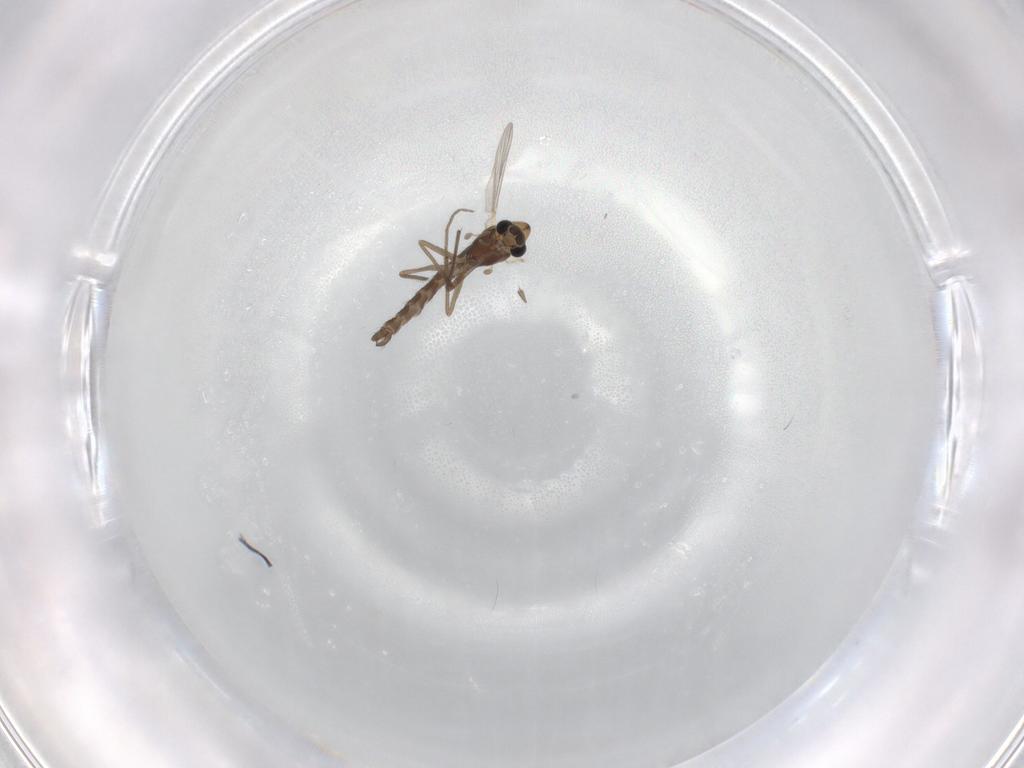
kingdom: Animalia
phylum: Arthropoda
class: Insecta
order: Diptera
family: Chironomidae
